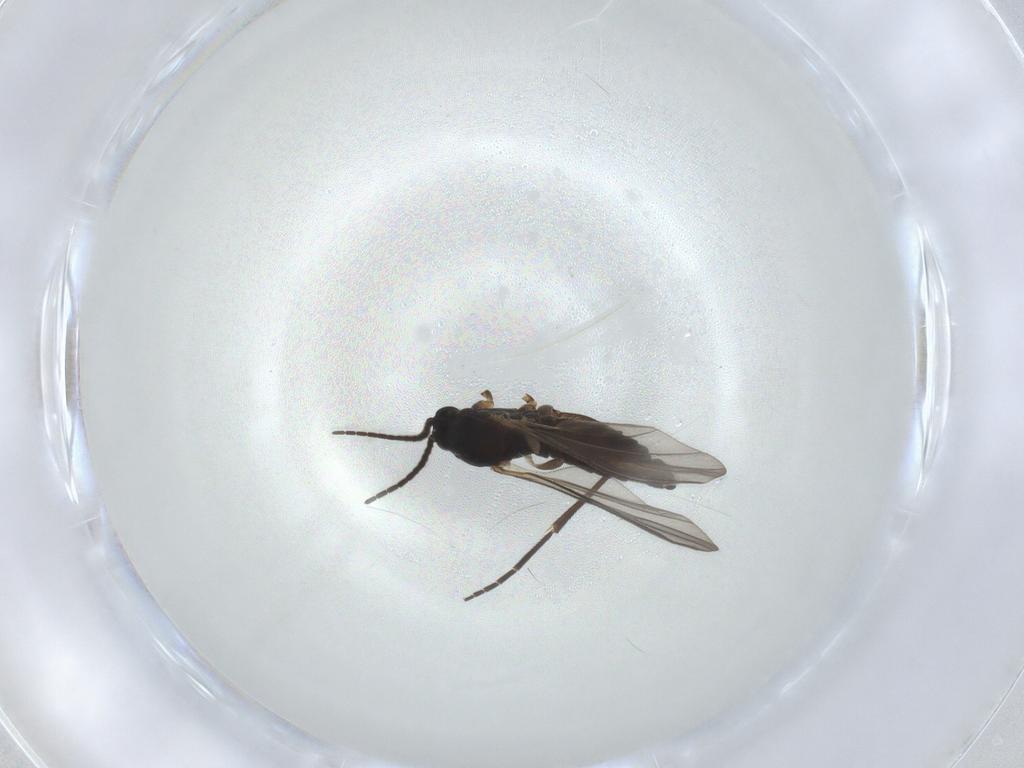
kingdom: Animalia
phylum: Arthropoda
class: Insecta
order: Diptera
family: Sciaridae
